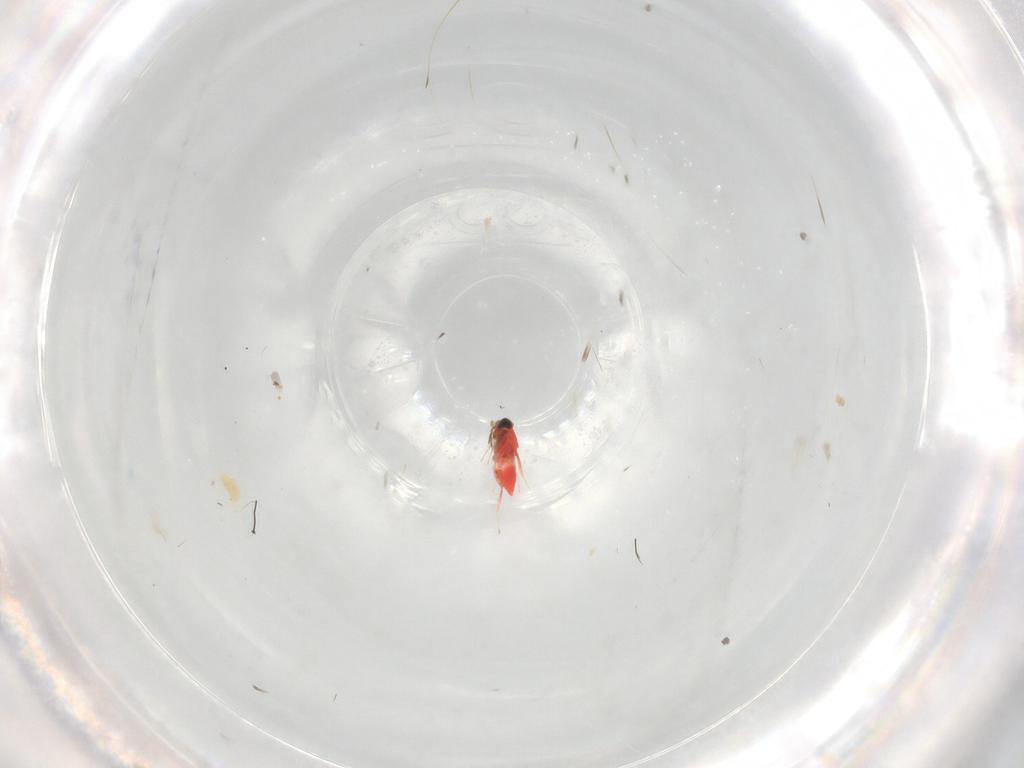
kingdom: Animalia
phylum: Arthropoda
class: Insecta
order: Hymenoptera
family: Trichogrammatidae
